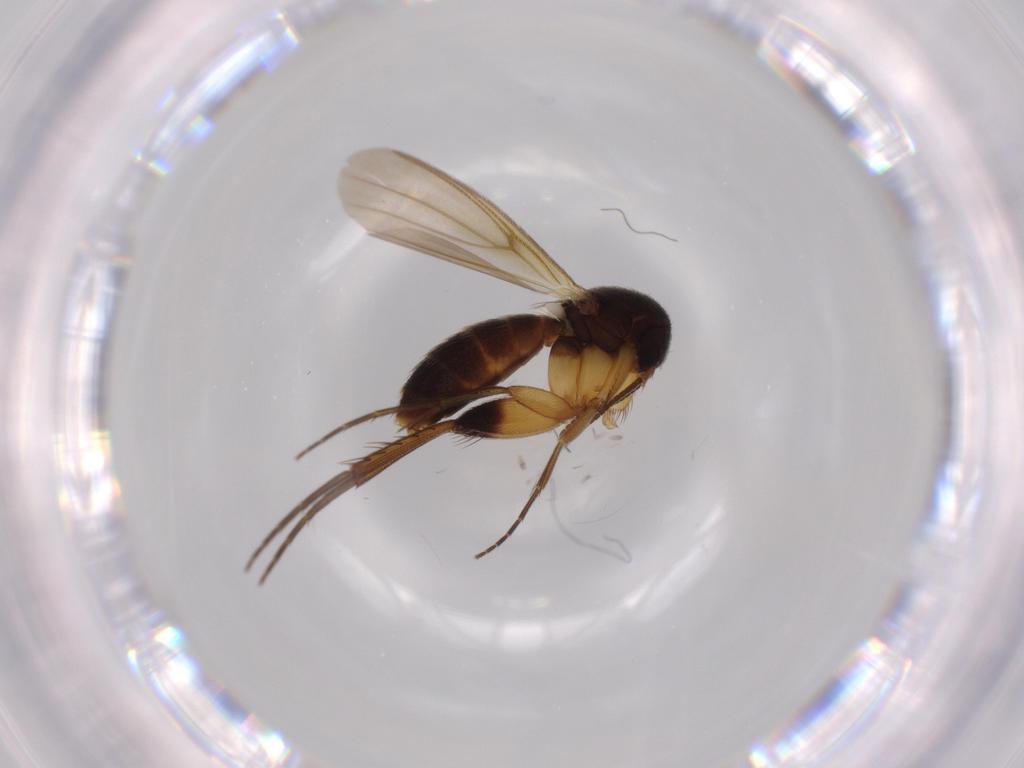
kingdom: Animalia
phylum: Arthropoda
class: Insecta
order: Diptera
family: Mycetophilidae
